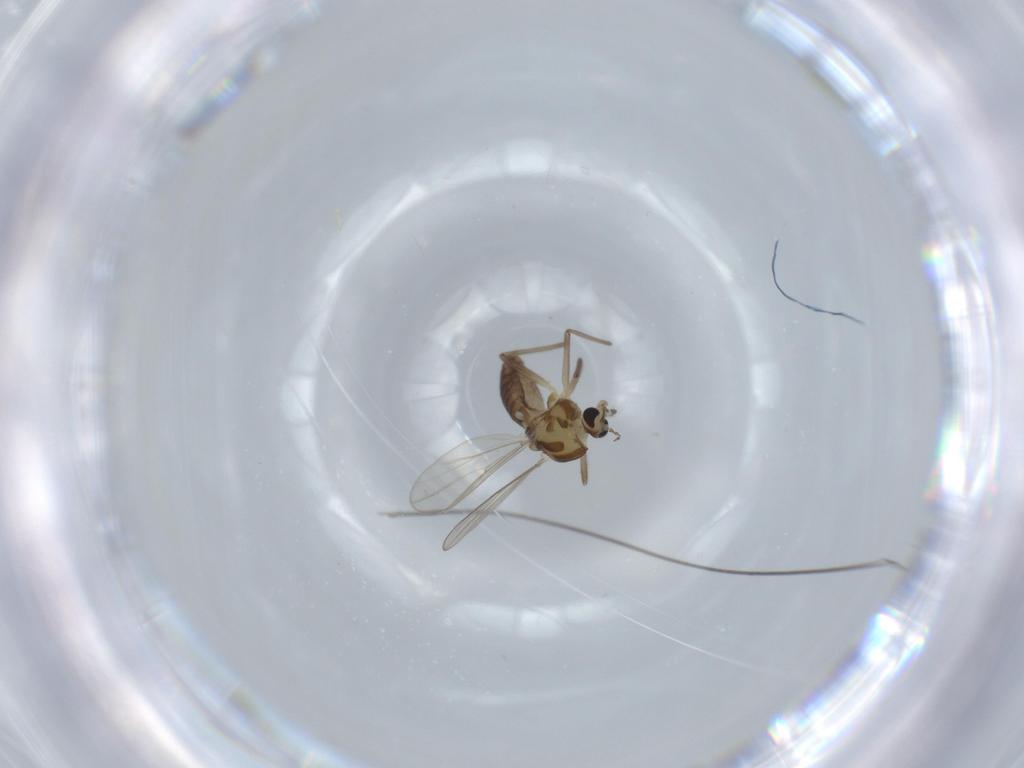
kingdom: Animalia
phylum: Arthropoda
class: Insecta
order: Diptera
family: Chironomidae
